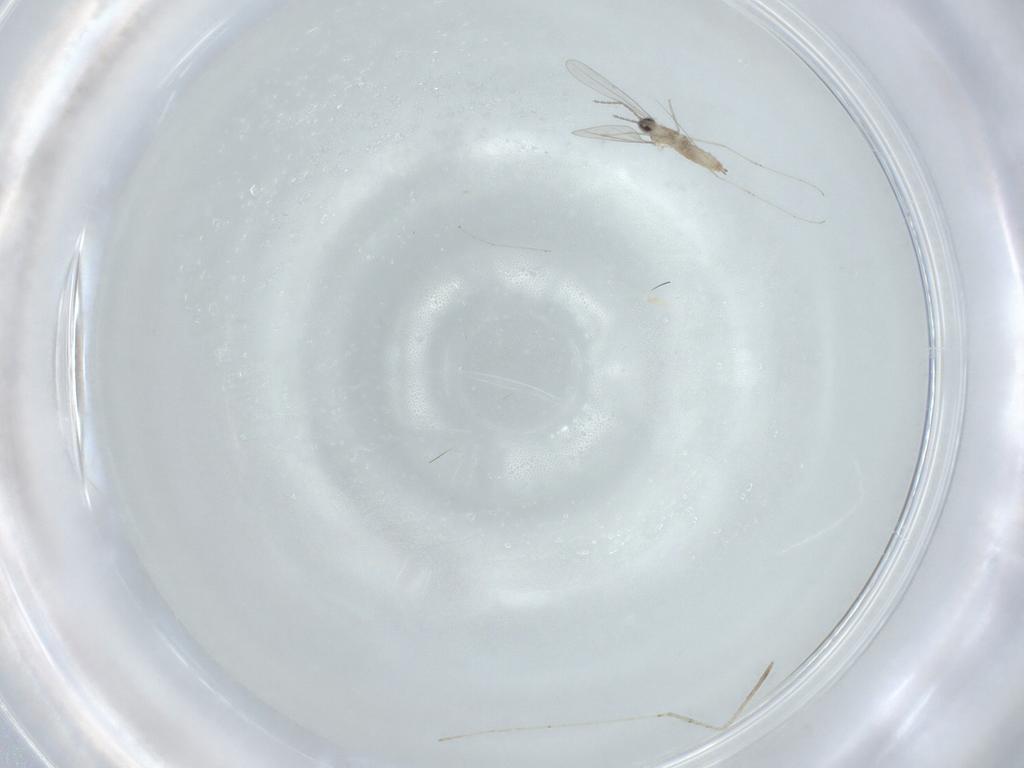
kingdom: Animalia
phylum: Arthropoda
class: Insecta
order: Diptera
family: Cecidomyiidae
